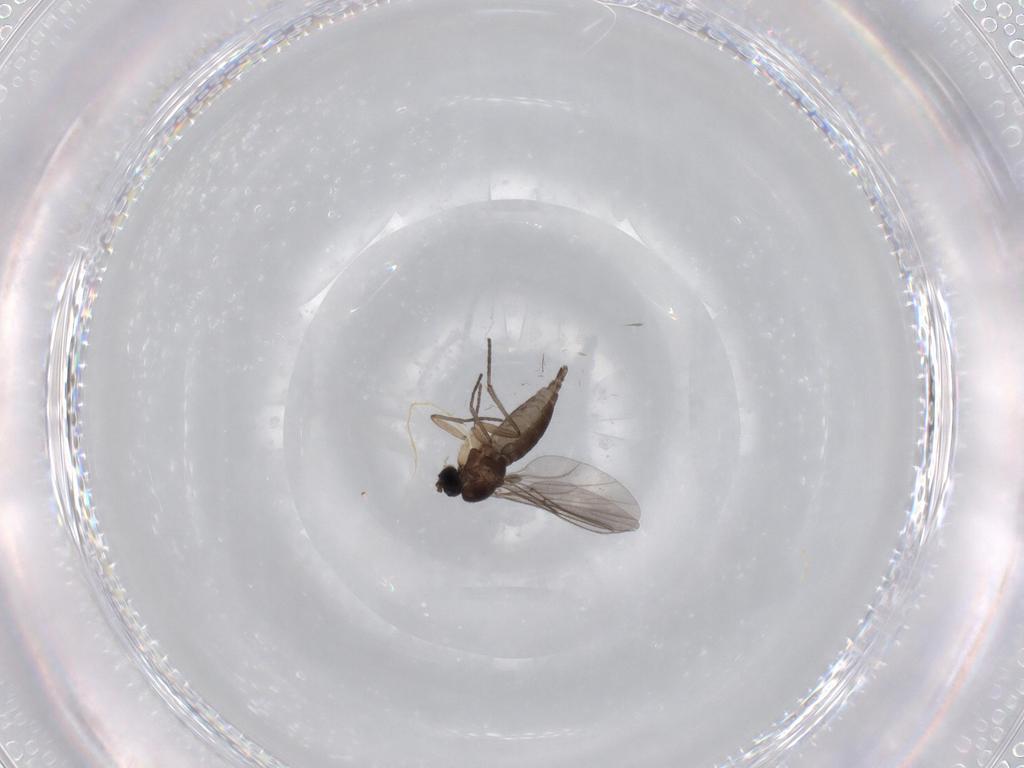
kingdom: Animalia
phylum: Arthropoda
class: Insecta
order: Diptera
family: Sciaridae
